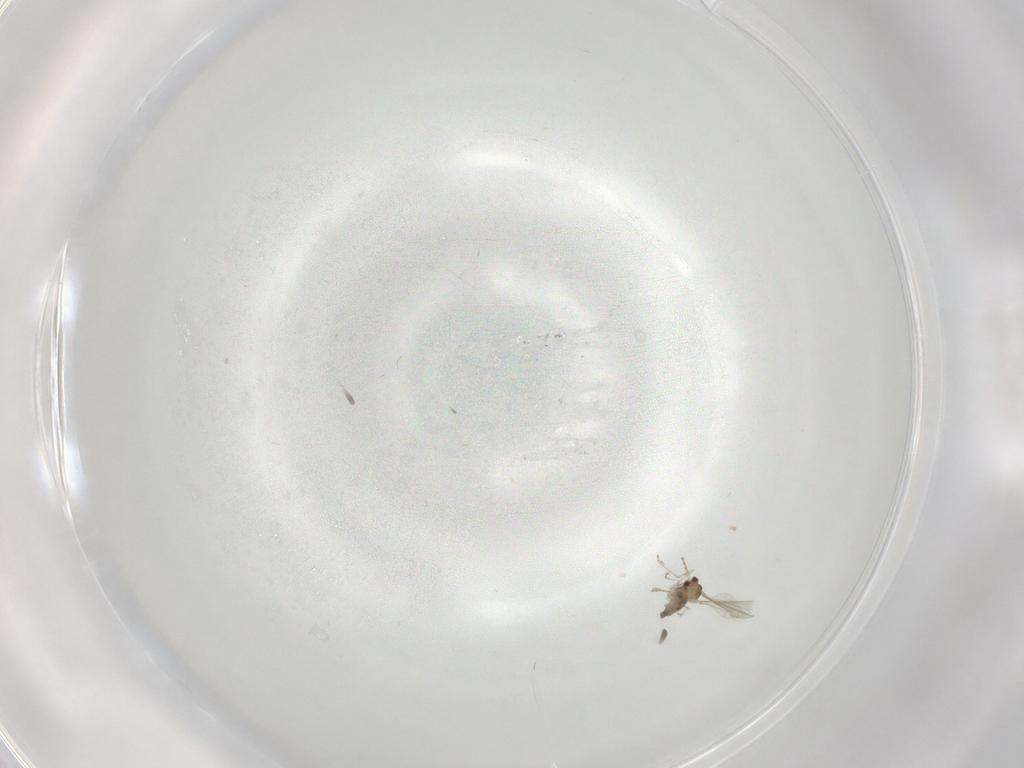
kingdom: Animalia
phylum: Arthropoda
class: Insecta
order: Diptera
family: Cecidomyiidae
